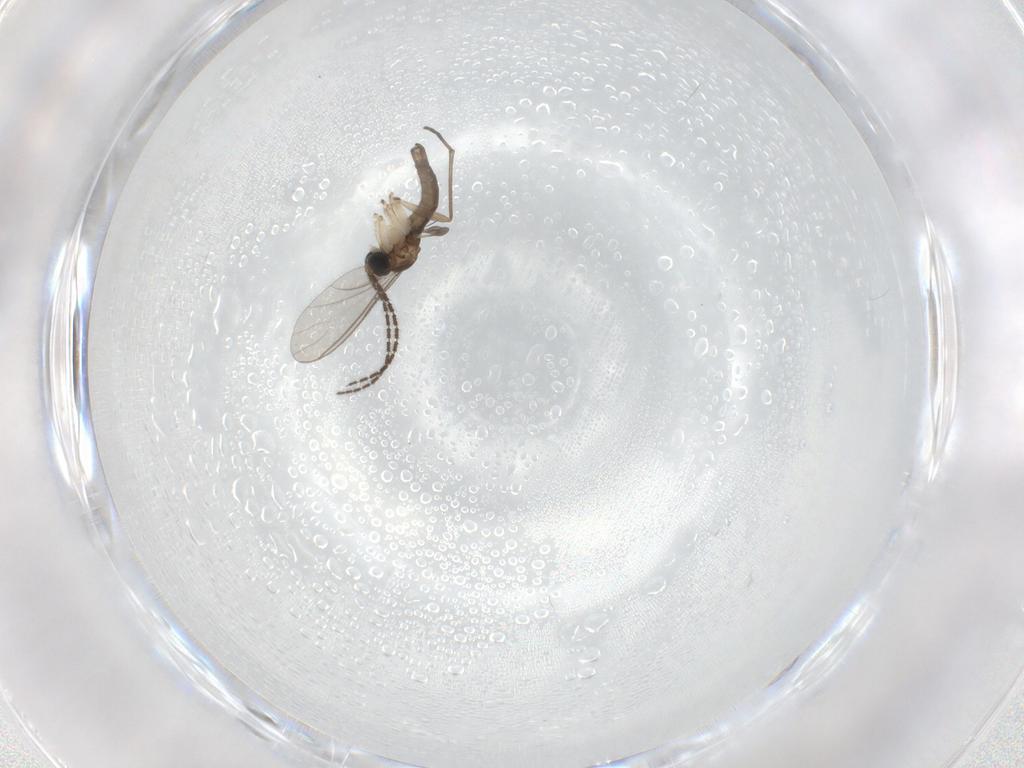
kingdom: Animalia
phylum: Arthropoda
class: Insecta
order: Diptera
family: Sciaridae
